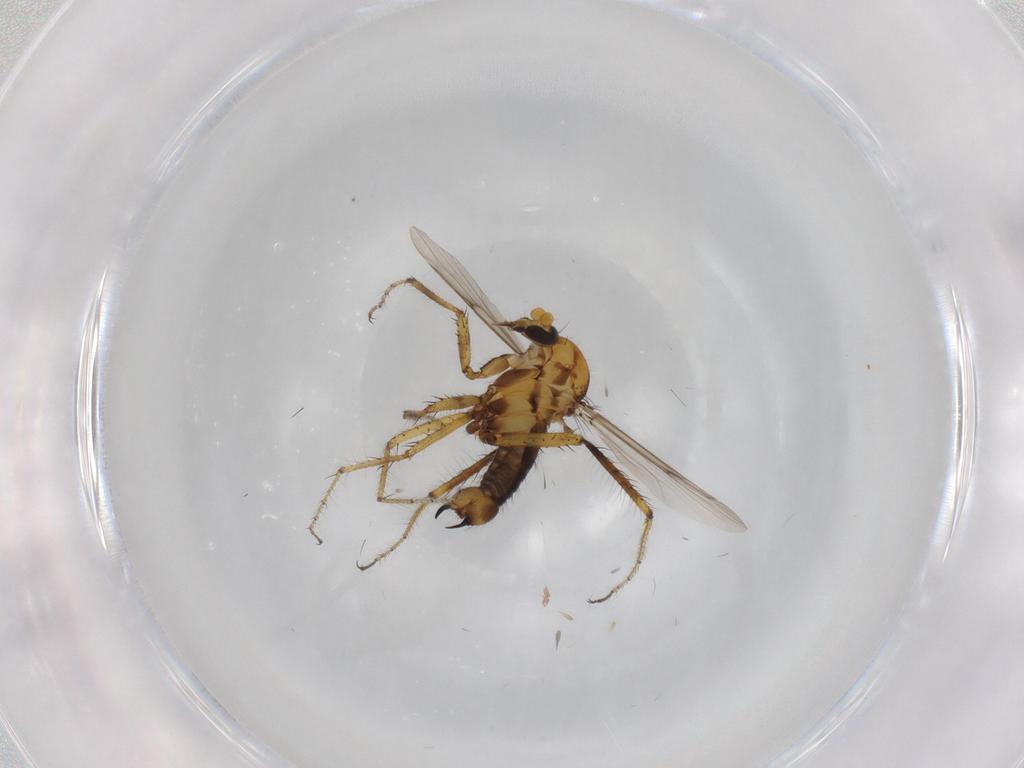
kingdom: Animalia
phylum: Arthropoda
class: Insecta
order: Diptera
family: Ceratopogonidae
